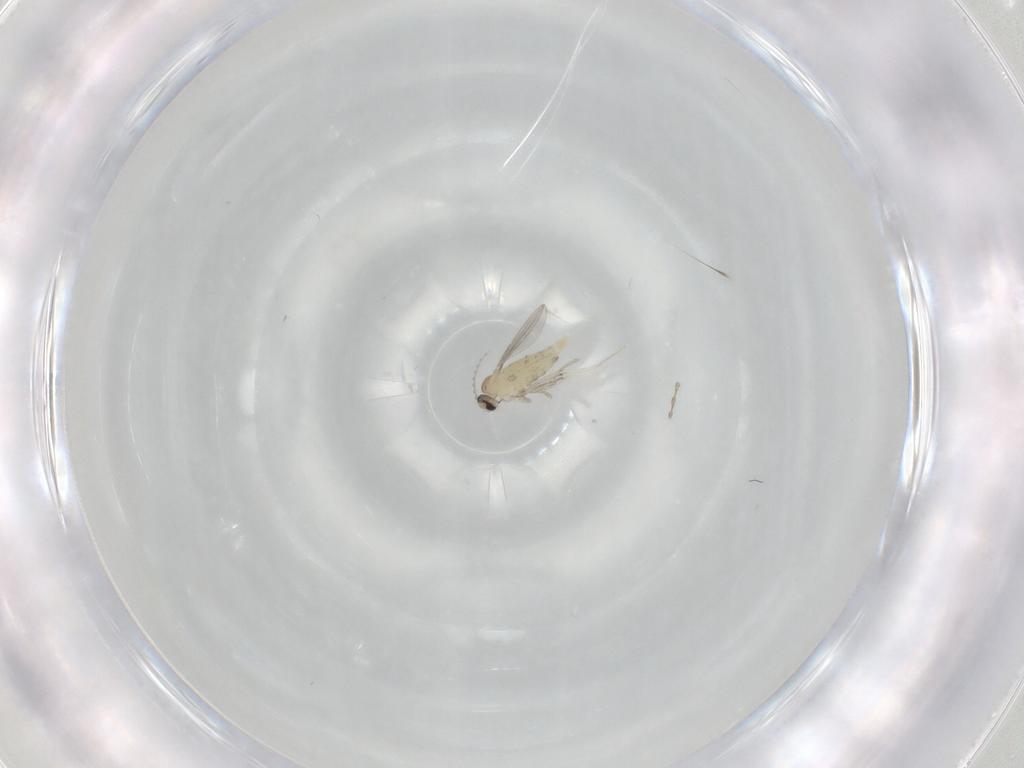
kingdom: Animalia
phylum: Arthropoda
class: Insecta
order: Diptera
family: Cecidomyiidae
